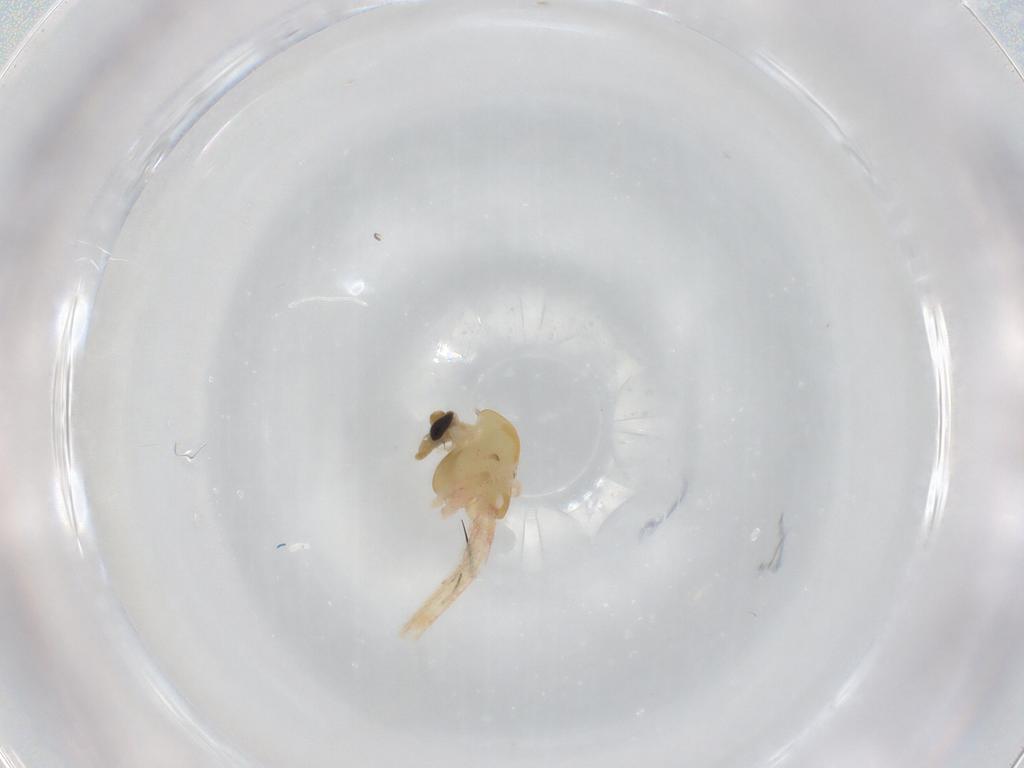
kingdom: Animalia
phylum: Arthropoda
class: Insecta
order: Diptera
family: Chironomidae
